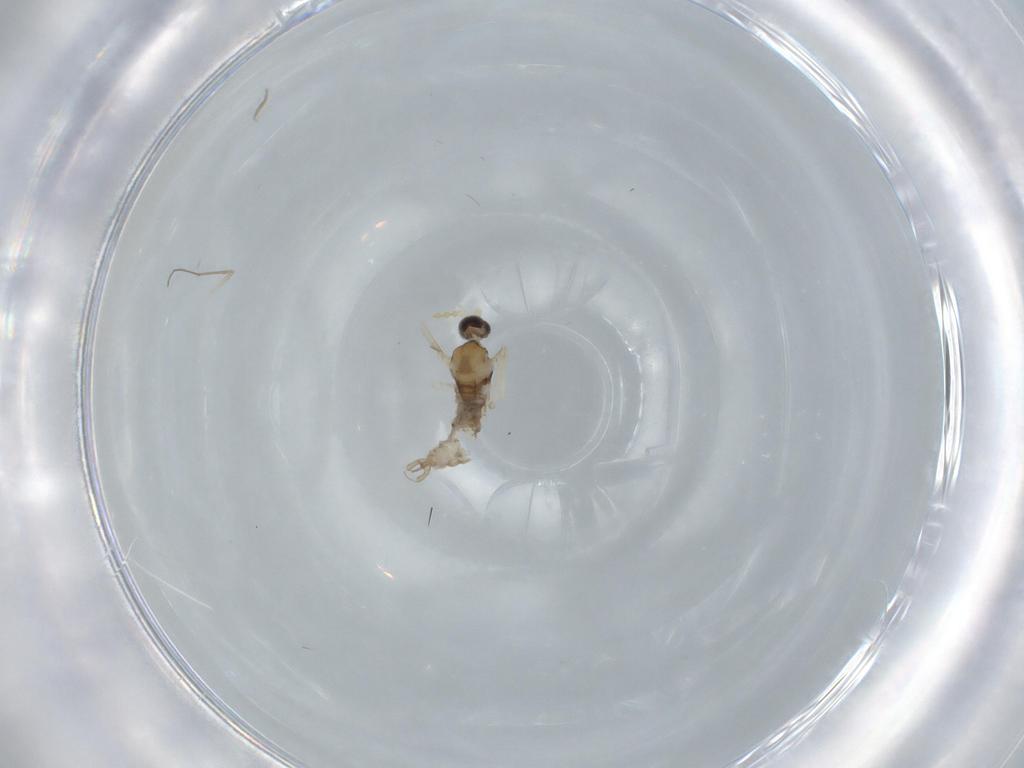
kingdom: Animalia
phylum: Arthropoda
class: Insecta
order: Diptera
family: Cecidomyiidae
